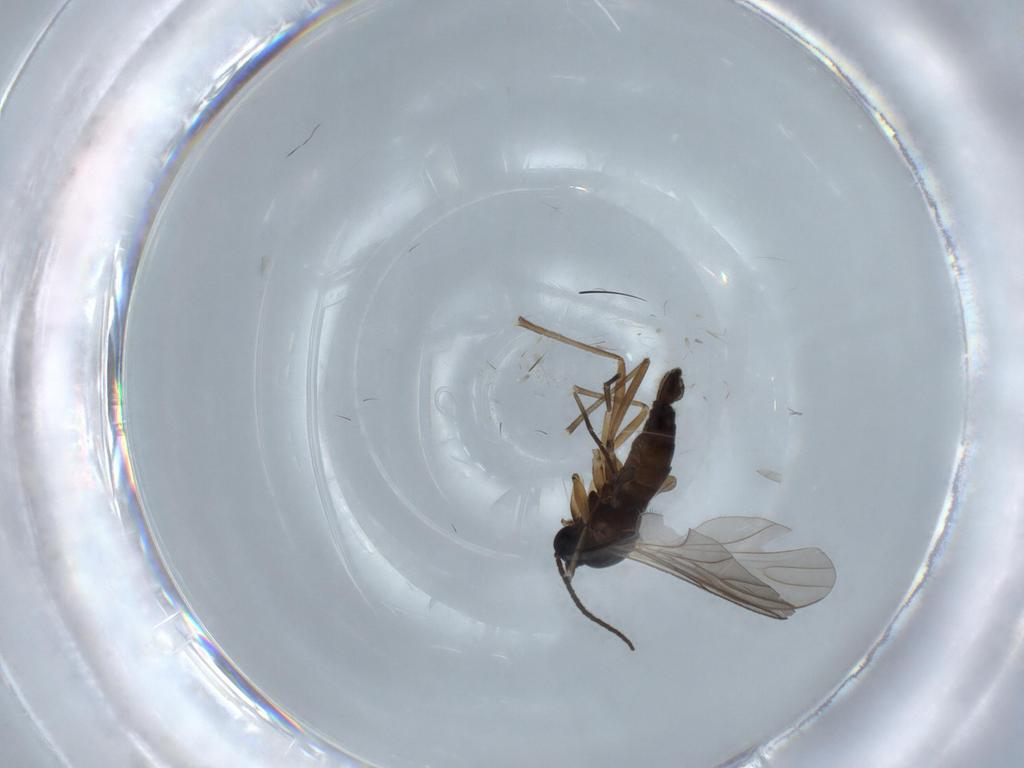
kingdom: Animalia
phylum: Arthropoda
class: Insecta
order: Diptera
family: Sciaridae
